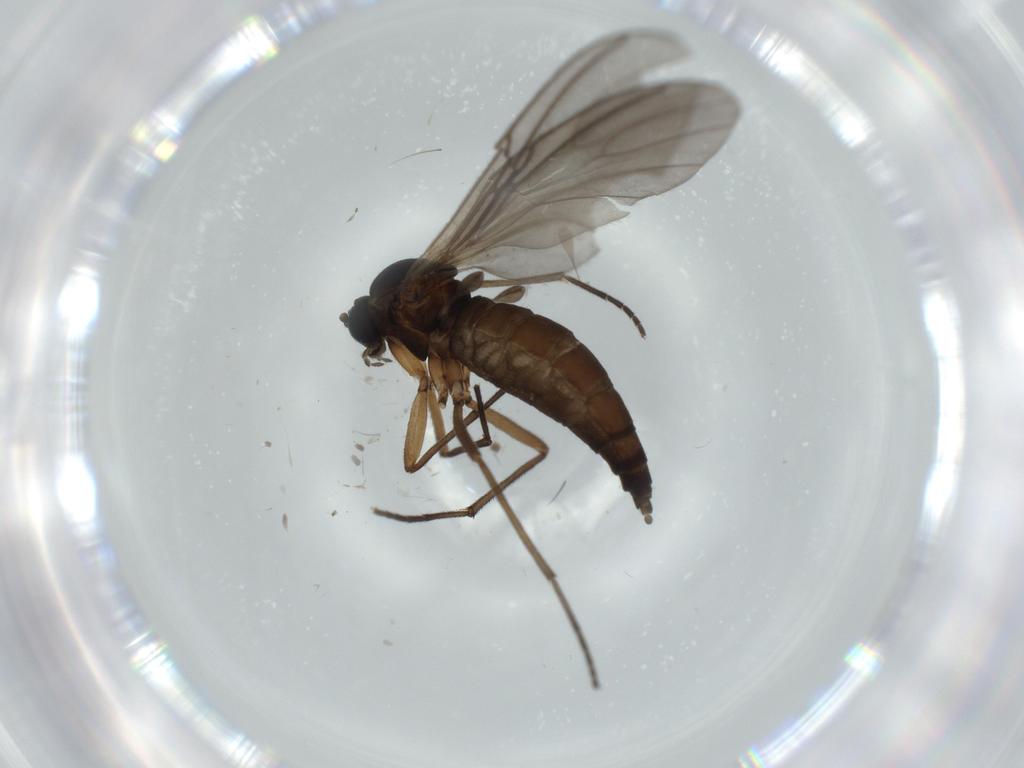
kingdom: Animalia
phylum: Arthropoda
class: Insecta
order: Diptera
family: Sciaridae
